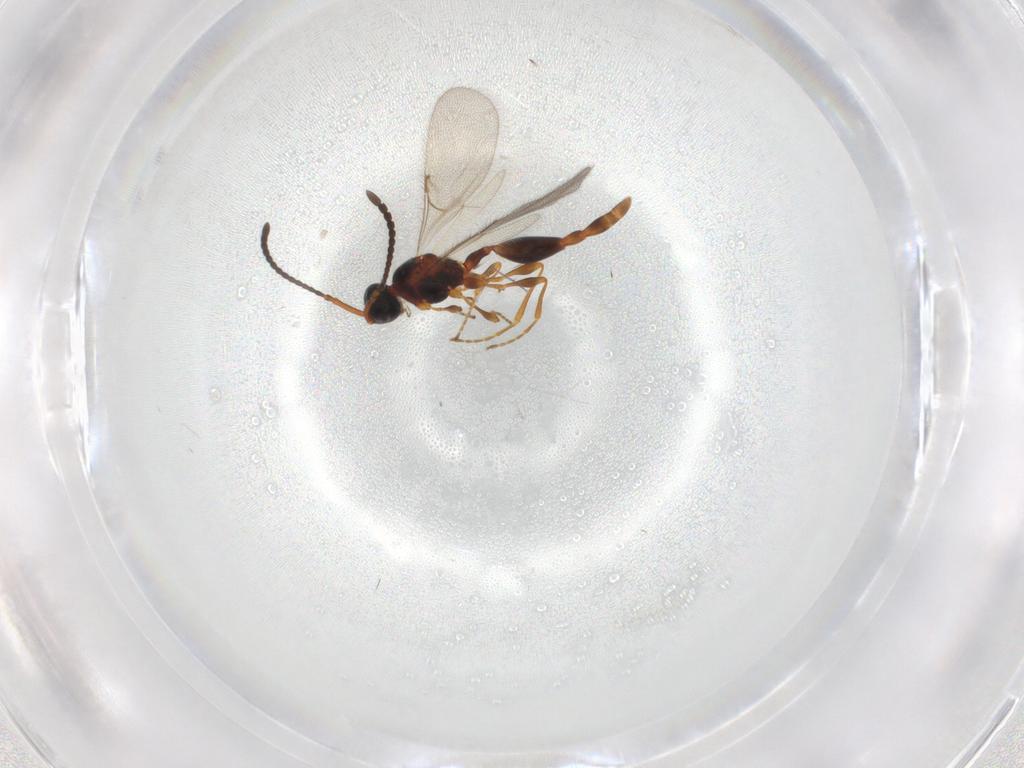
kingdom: Animalia
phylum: Arthropoda
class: Insecta
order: Hymenoptera
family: Diapriidae
